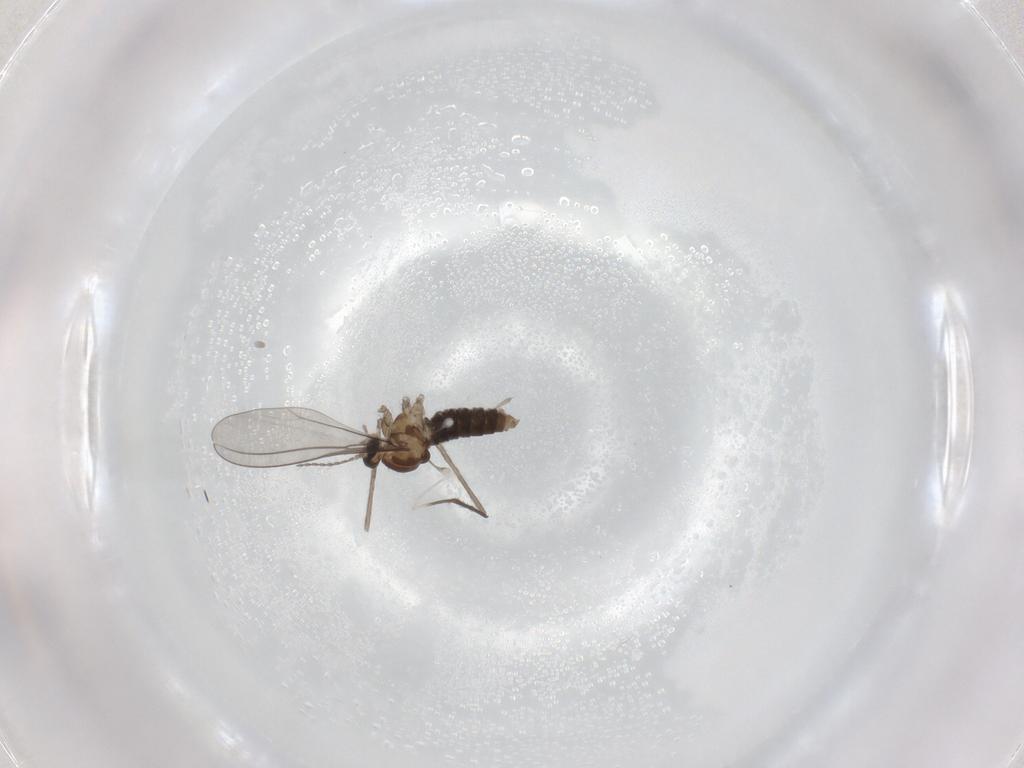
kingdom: Animalia
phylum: Arthropoda
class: Insecta
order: Diptera
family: Cecidomyiidae
